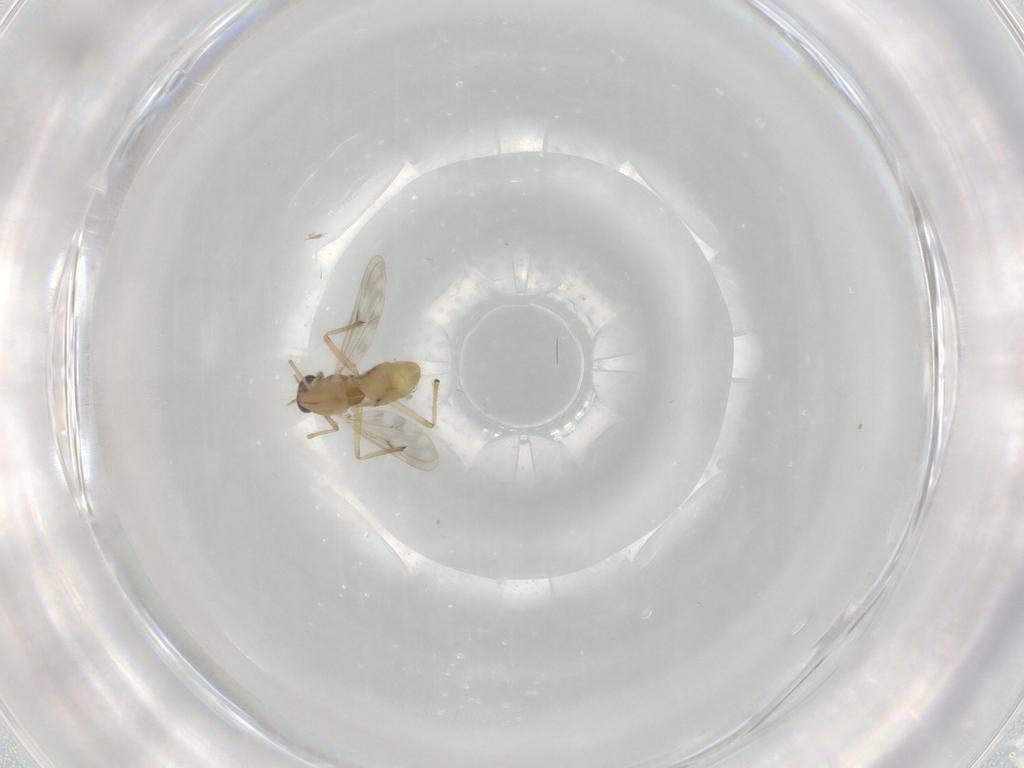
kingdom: Animalia
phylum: Arthropoda
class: Insecta
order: Diptera
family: Chironomidae
